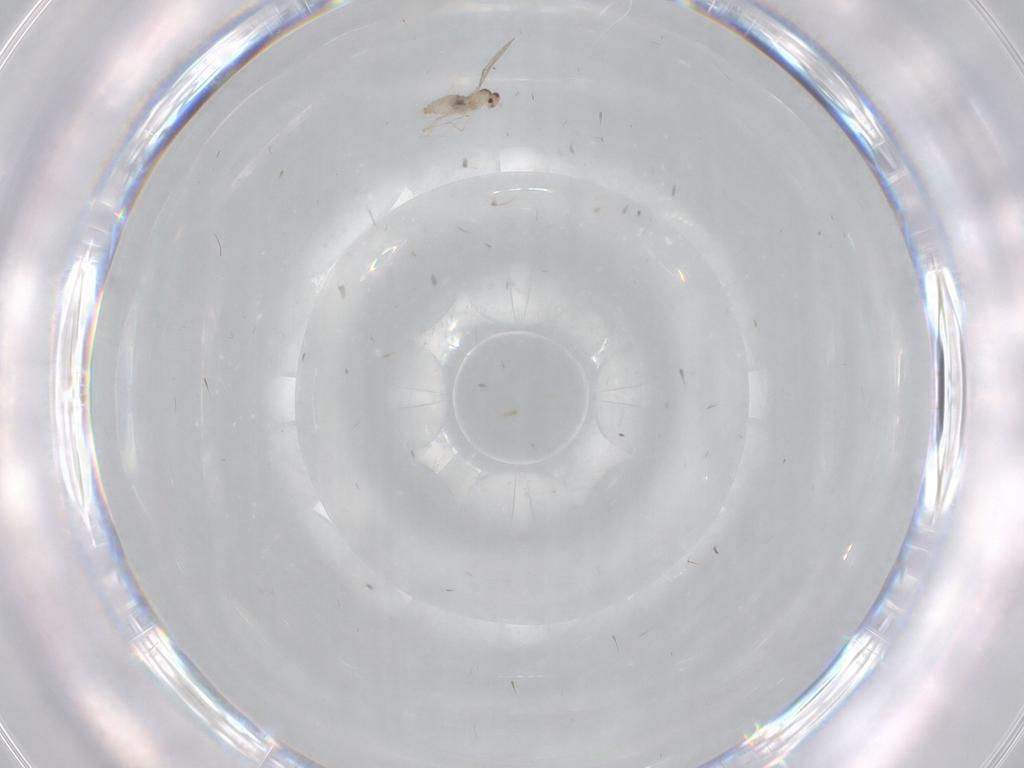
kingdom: Animalia
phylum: Arthropoda
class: Insecta
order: Diptera
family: Cecidomyiidae
